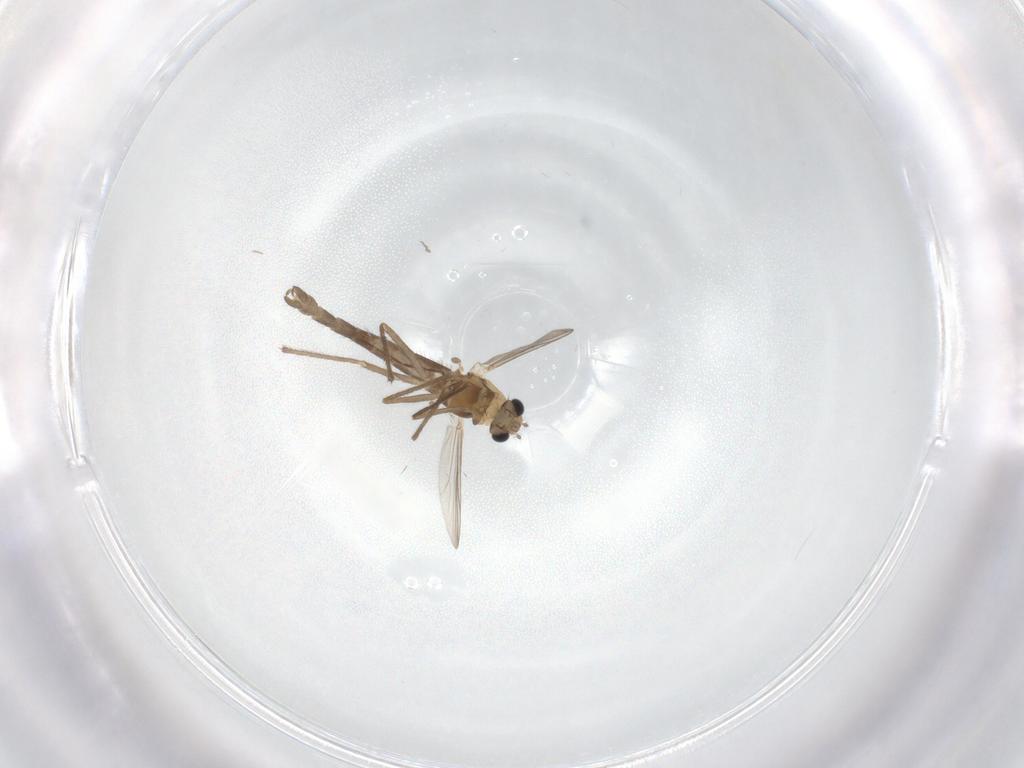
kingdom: Animalia
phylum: Arthropoda
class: Insecta
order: Diptera
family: Chironomidae
